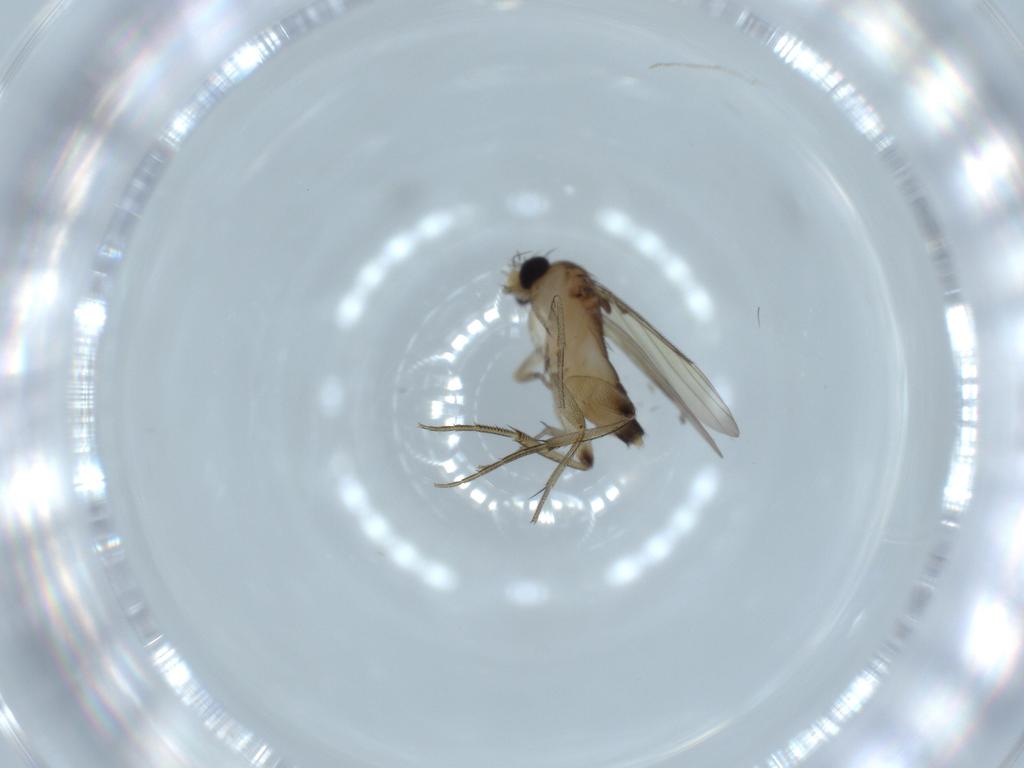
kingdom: Animalia
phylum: Arthropoda
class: Insecta
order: Diptera
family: Phoridae
